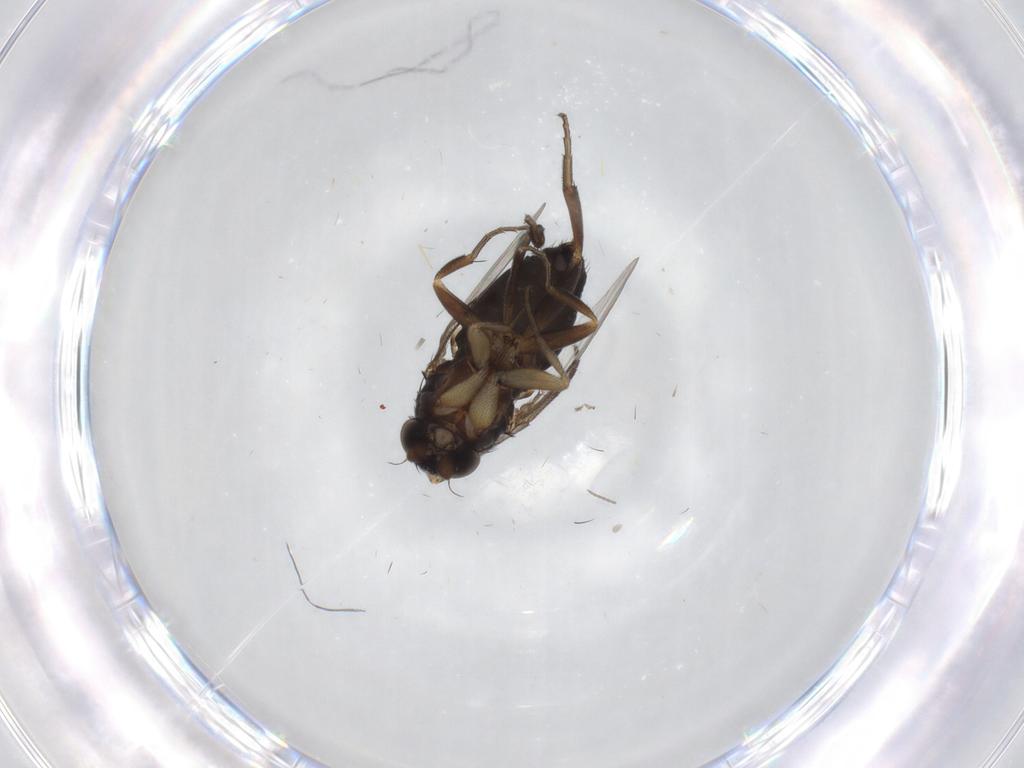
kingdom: Animalia
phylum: Arthropoda
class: Insecta
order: Diptera
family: Phoridae
